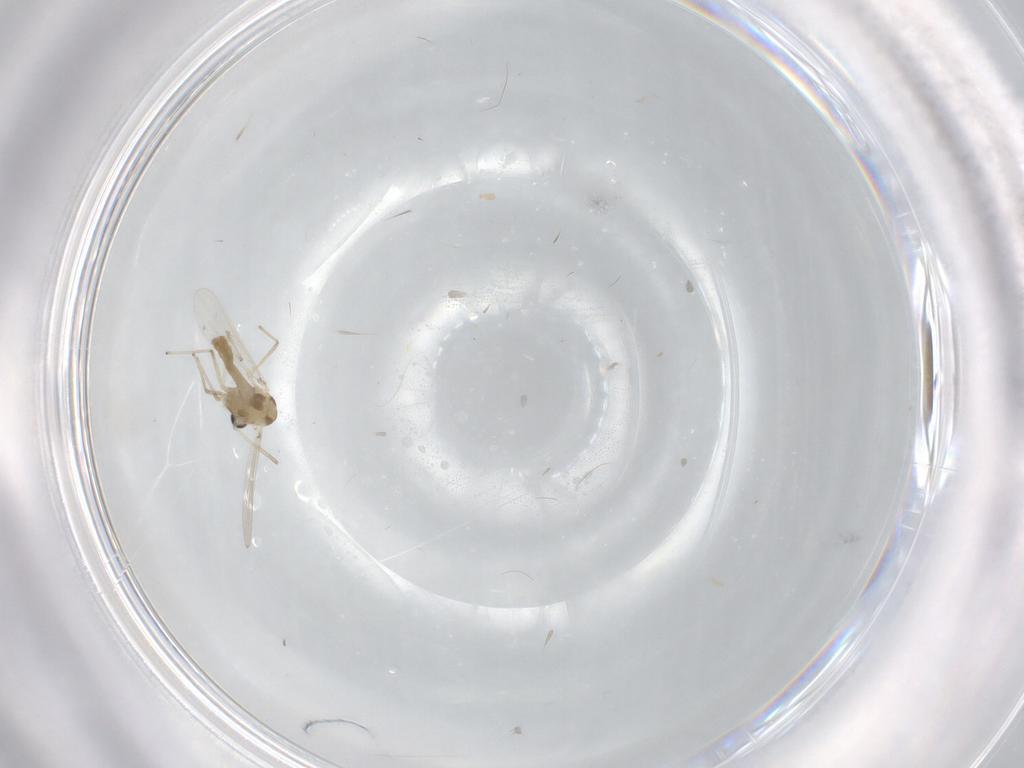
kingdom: Animalia
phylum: Arthropoda
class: Insecta
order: Diptera
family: Chironomidae
